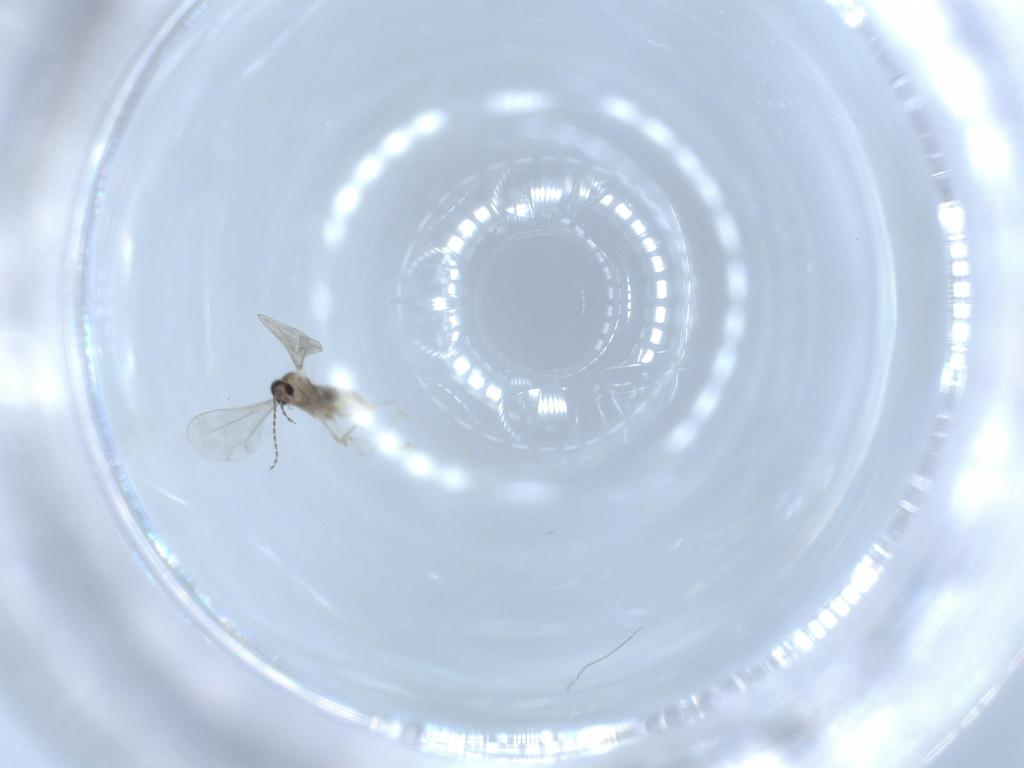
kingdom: Animalia
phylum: Arthropoda
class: Insecta
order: Diptera
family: Cecidomyiidae
